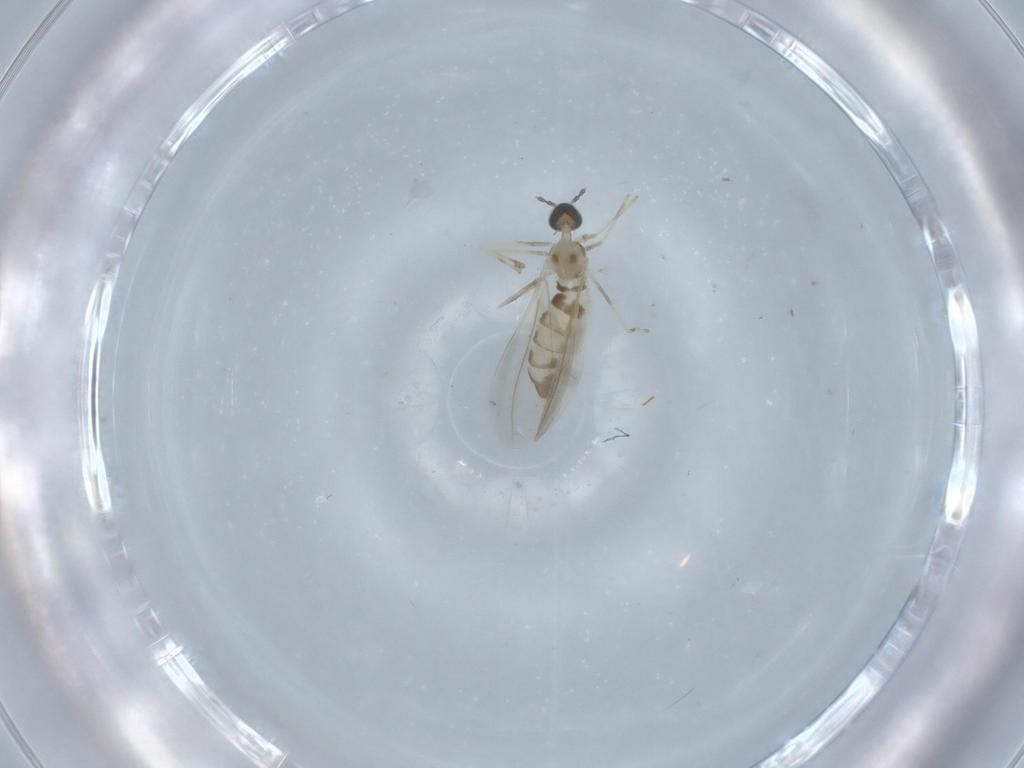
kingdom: Animalia
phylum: Arthropoda
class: Insecta
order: Diptera
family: Cecidomyiidae
